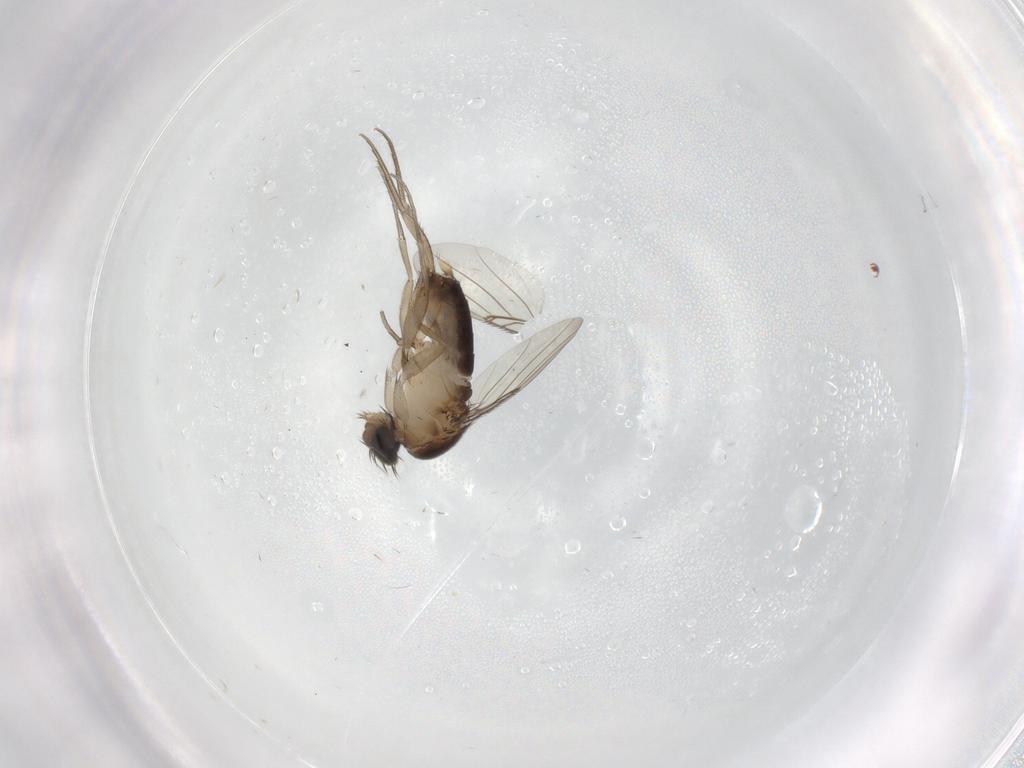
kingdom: Animalia
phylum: Arthropoda
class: Insecta
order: Diptera
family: Phoridae
